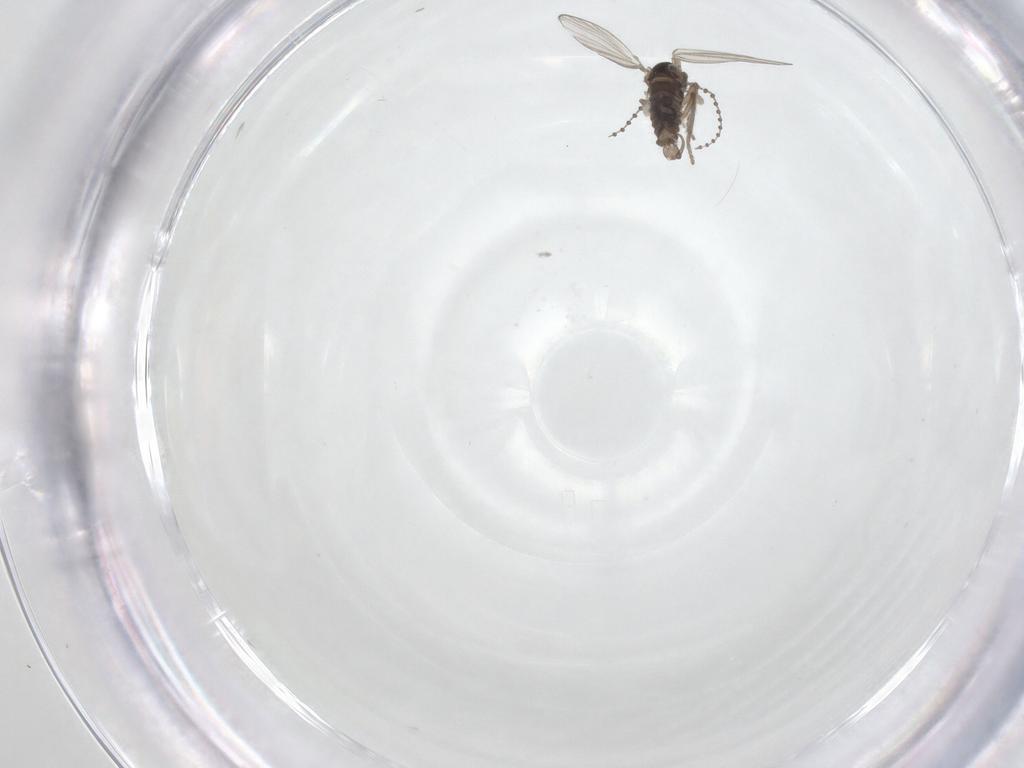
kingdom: Animalia
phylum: Arthropoda
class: Insecta
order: Diptera
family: Psychodidae
